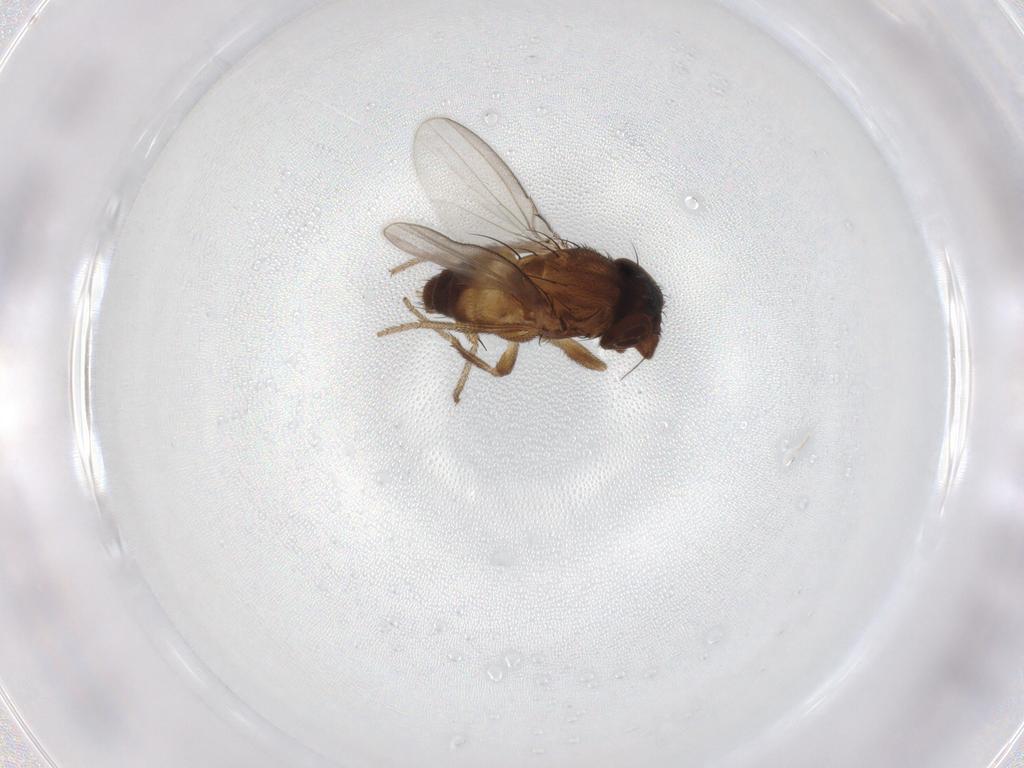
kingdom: Animalia
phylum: Arthropoda
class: Insecta
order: Diptera
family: Milichiidae
